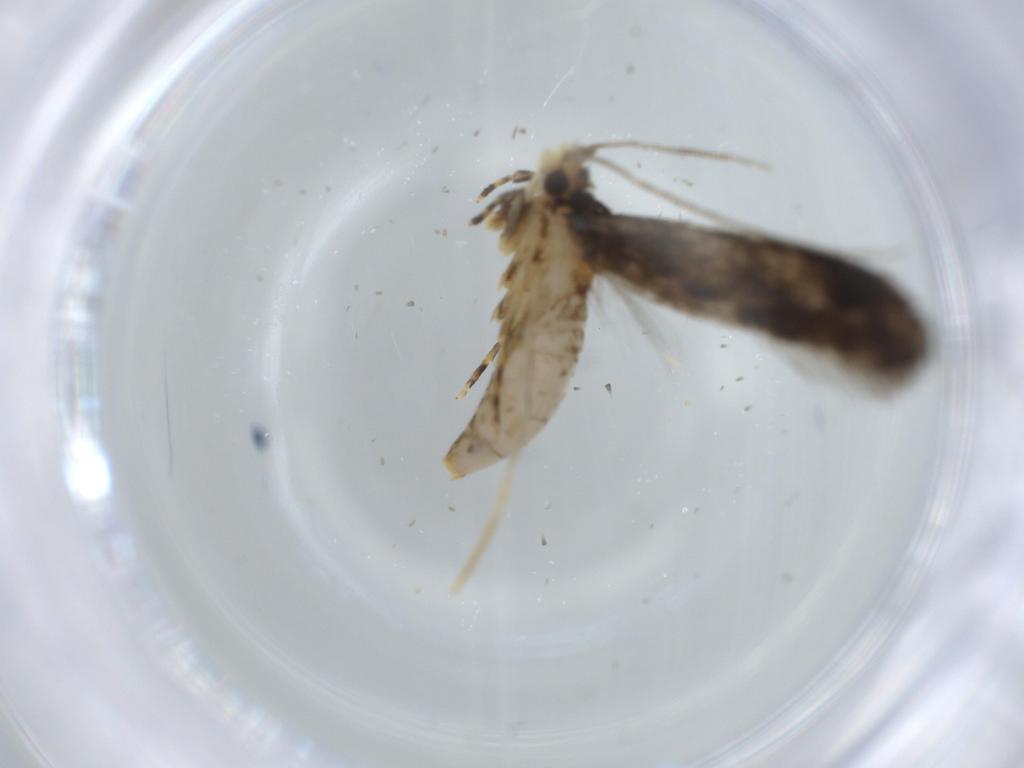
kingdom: Animalia
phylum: Arthropoda
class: Insecta
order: Lepidoptera
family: Meessiidae
